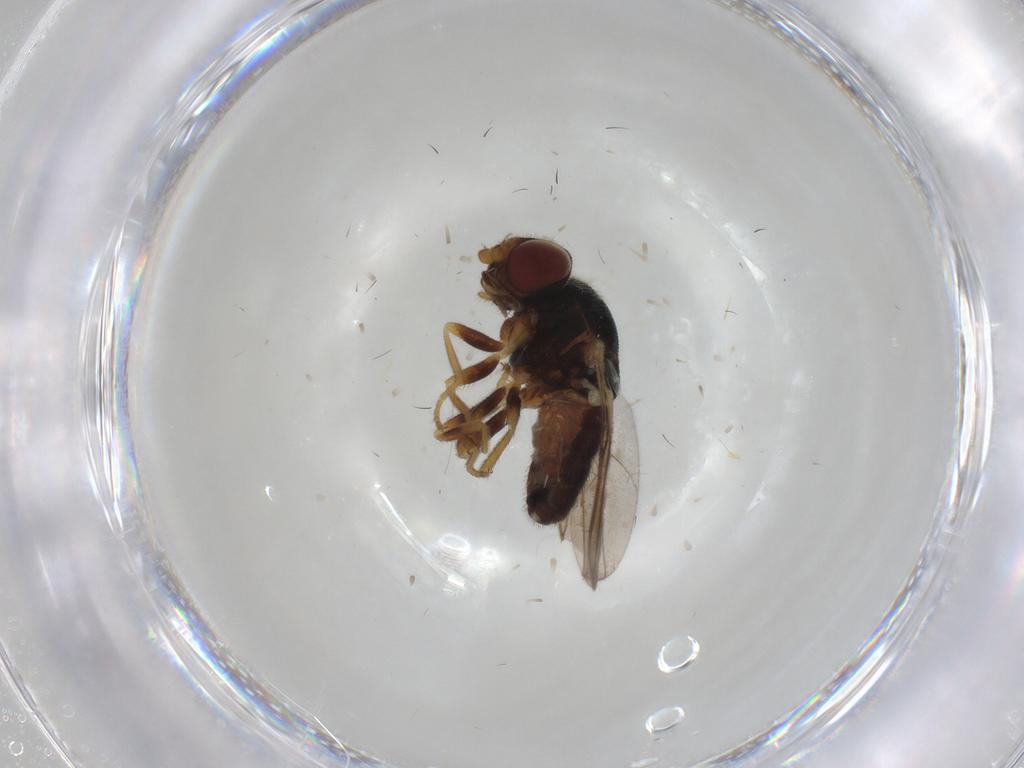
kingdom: Animalia
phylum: Arthropoda
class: Insecta
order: Diptera
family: Chloropidae
